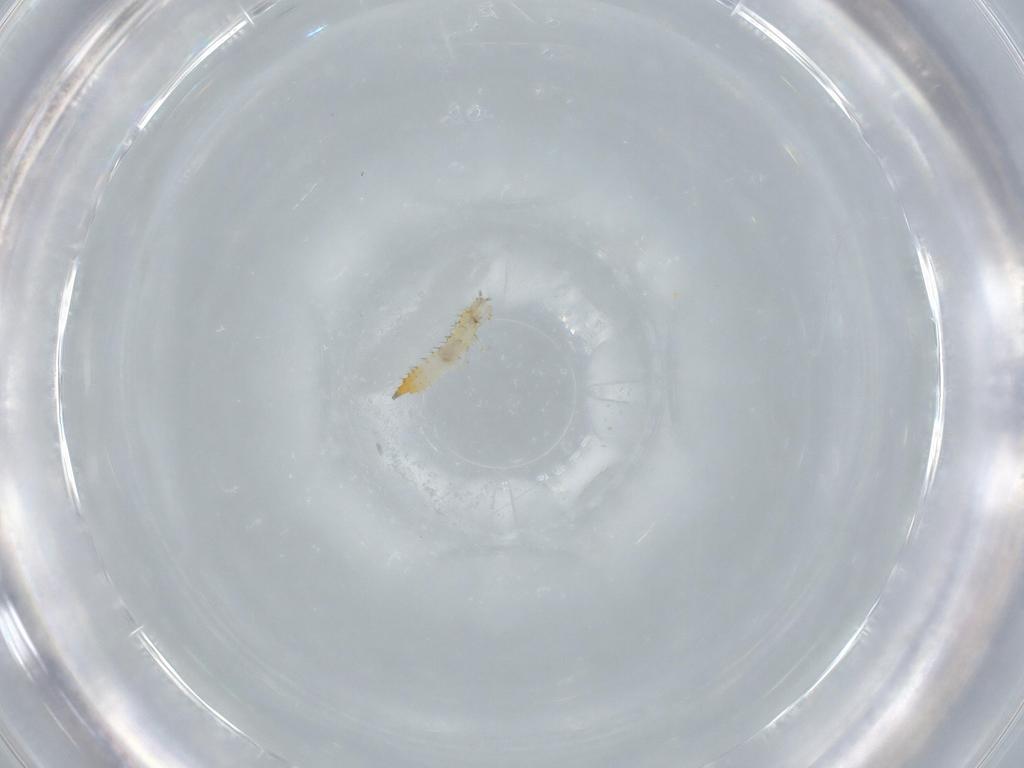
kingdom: Animalia
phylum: Arthropoda
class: Insecta
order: Thysanoptera
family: Phlaeothripidae
